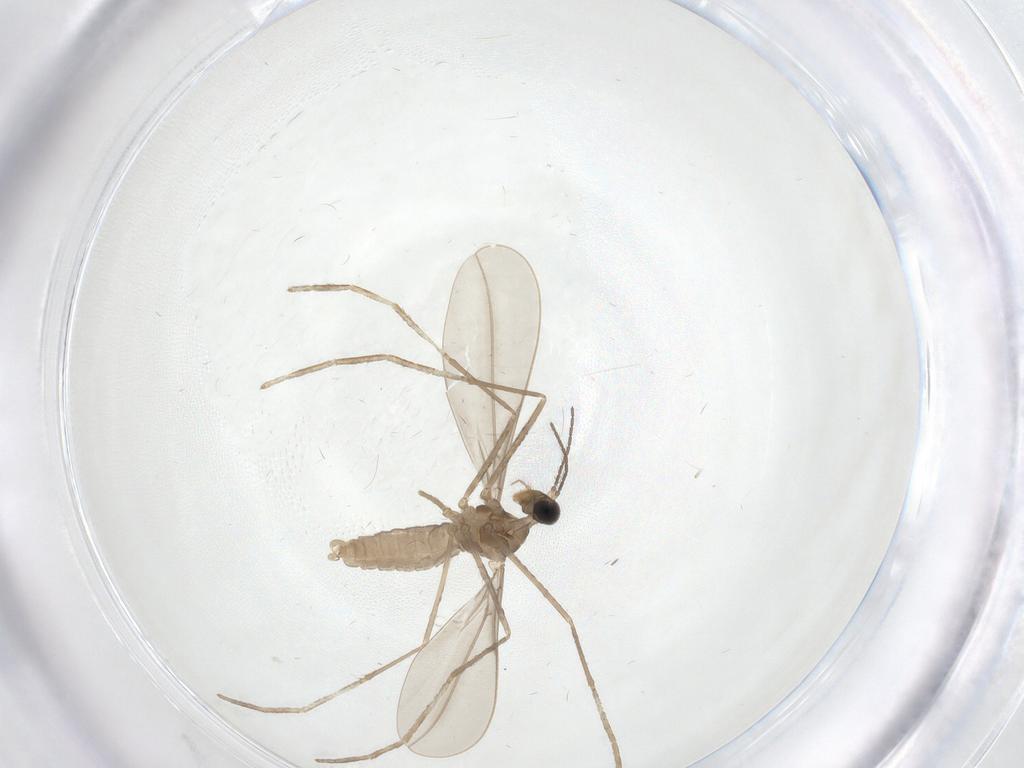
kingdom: Animalia
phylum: Arthropoda
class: Insecta
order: Diptera
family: Cecidomyiidae
